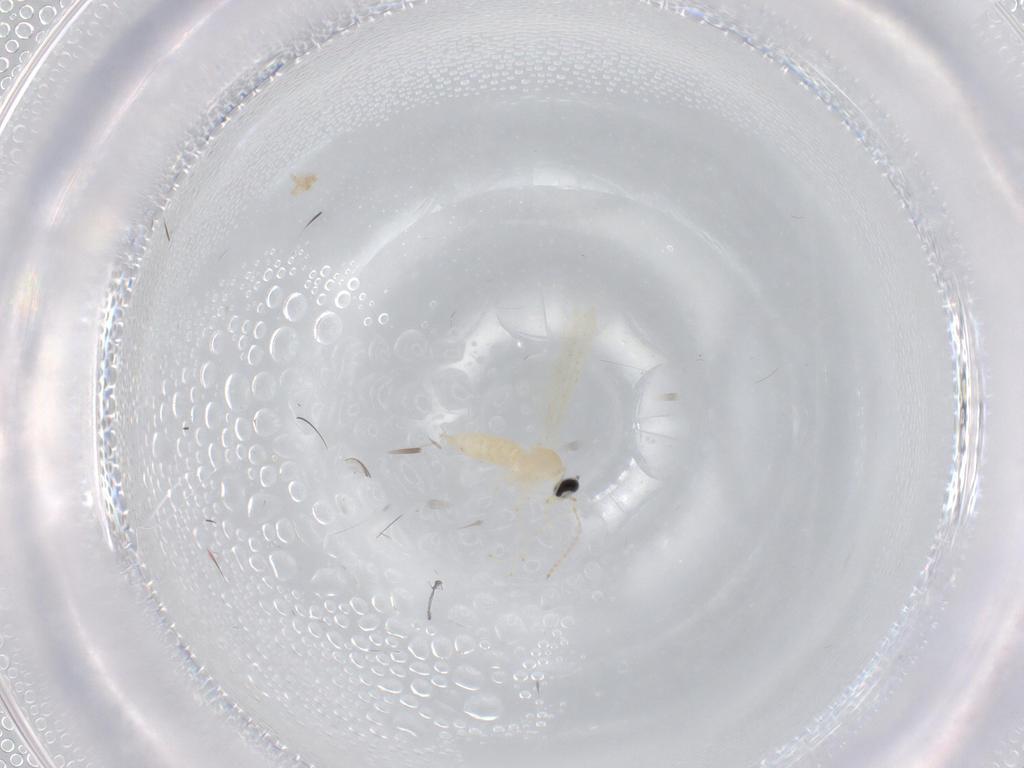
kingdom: Animalia
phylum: Arthropoda
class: Insecta
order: Diptera
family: Cecidomyiidae
